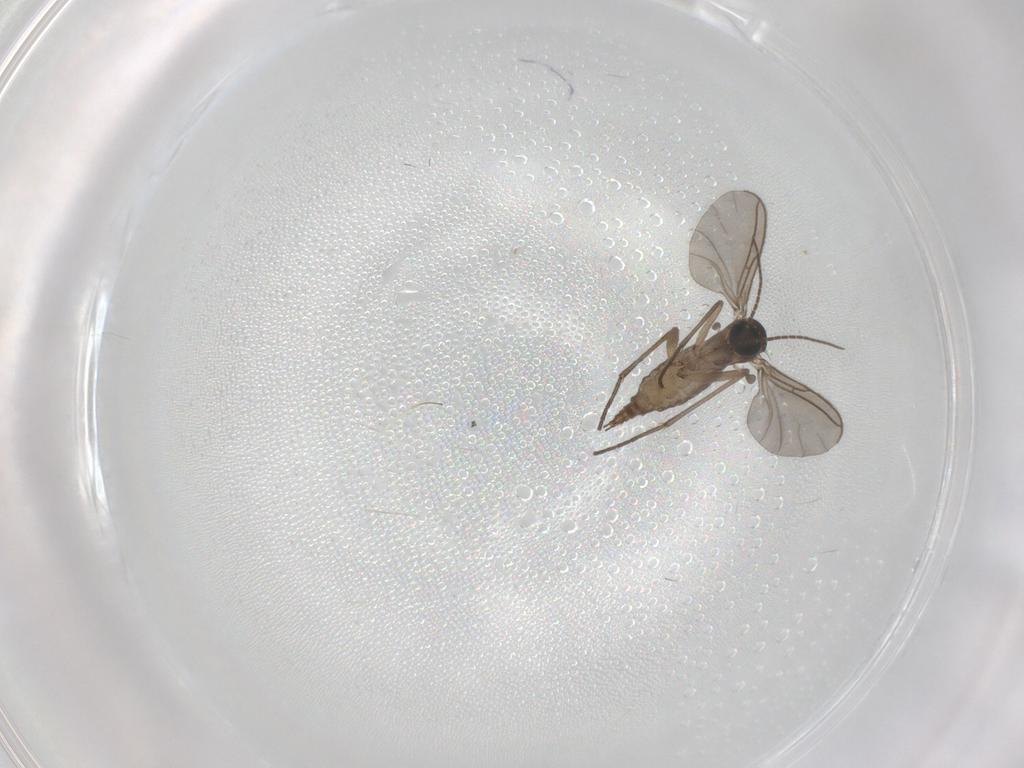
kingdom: Animalia
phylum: Arthropoda
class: Insecta
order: Diptera
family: Sciaridae
